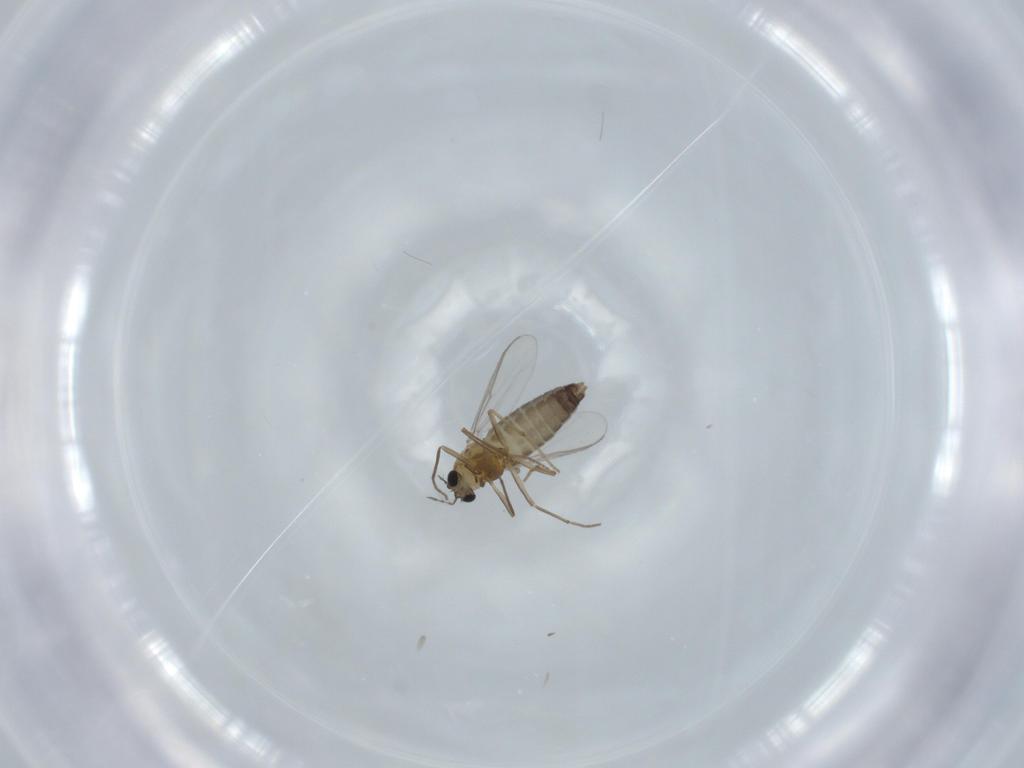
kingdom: Animalia
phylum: Arthropoda
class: Insecta
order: Diptera
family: Chironomidae
